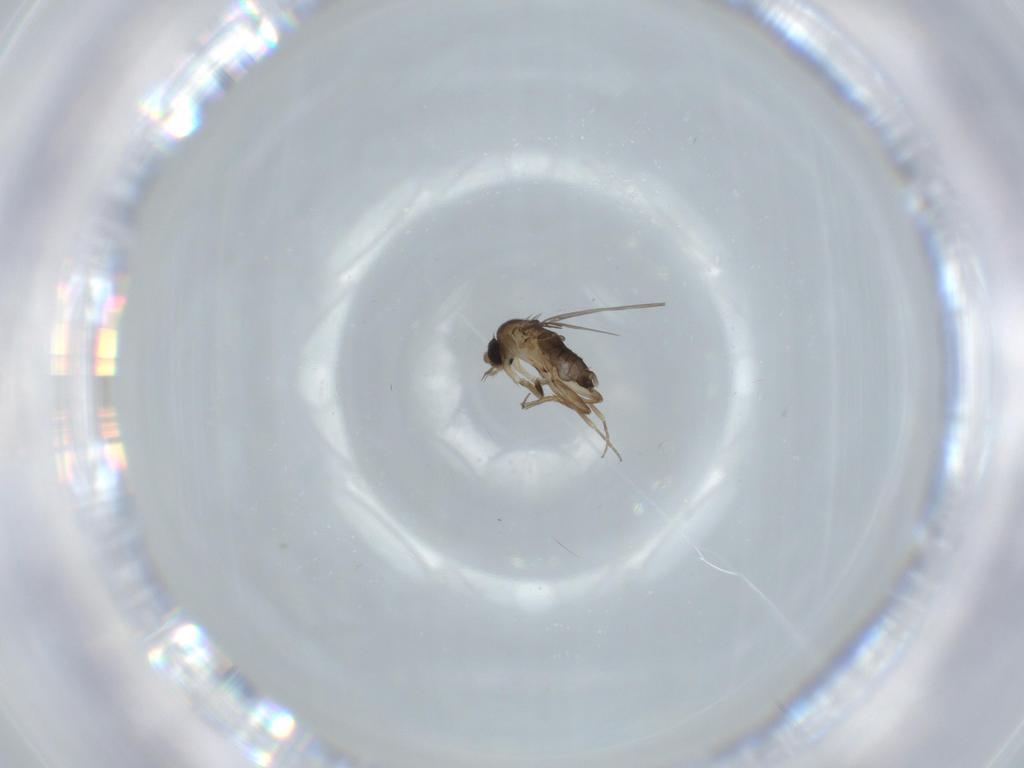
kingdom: Animalia
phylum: Arthropoda
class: Insecta
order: Diptera
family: Phoridae
